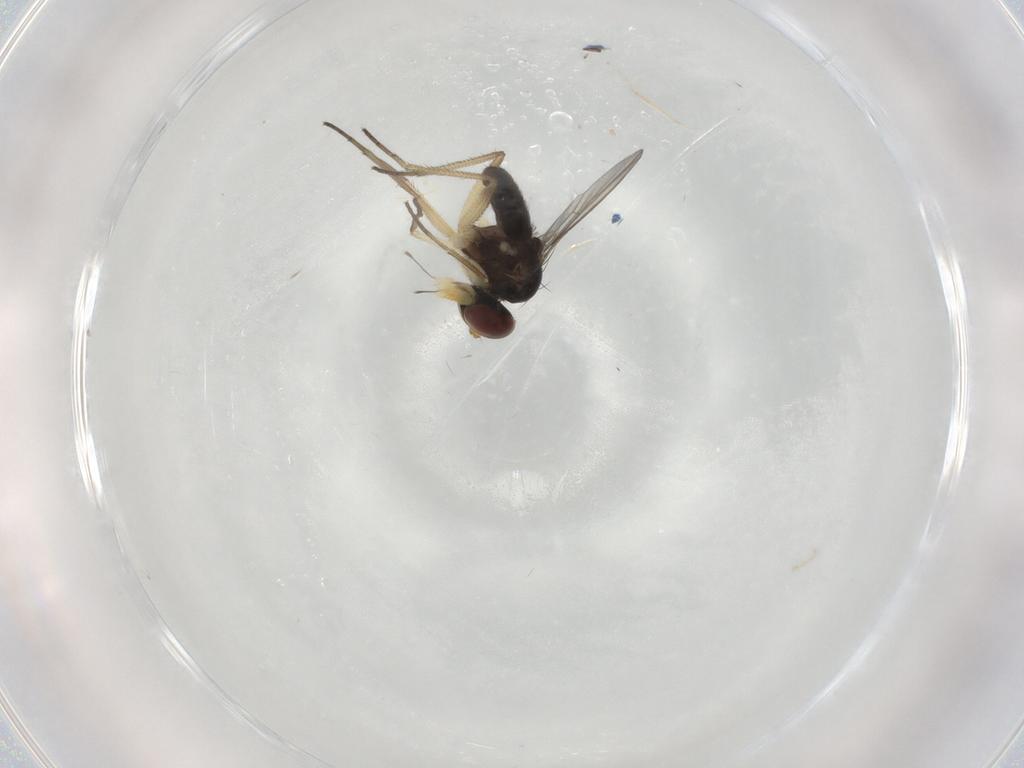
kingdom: Animalia
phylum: Arthropoda
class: Insecta
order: Diptera
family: Dolichopodidae
